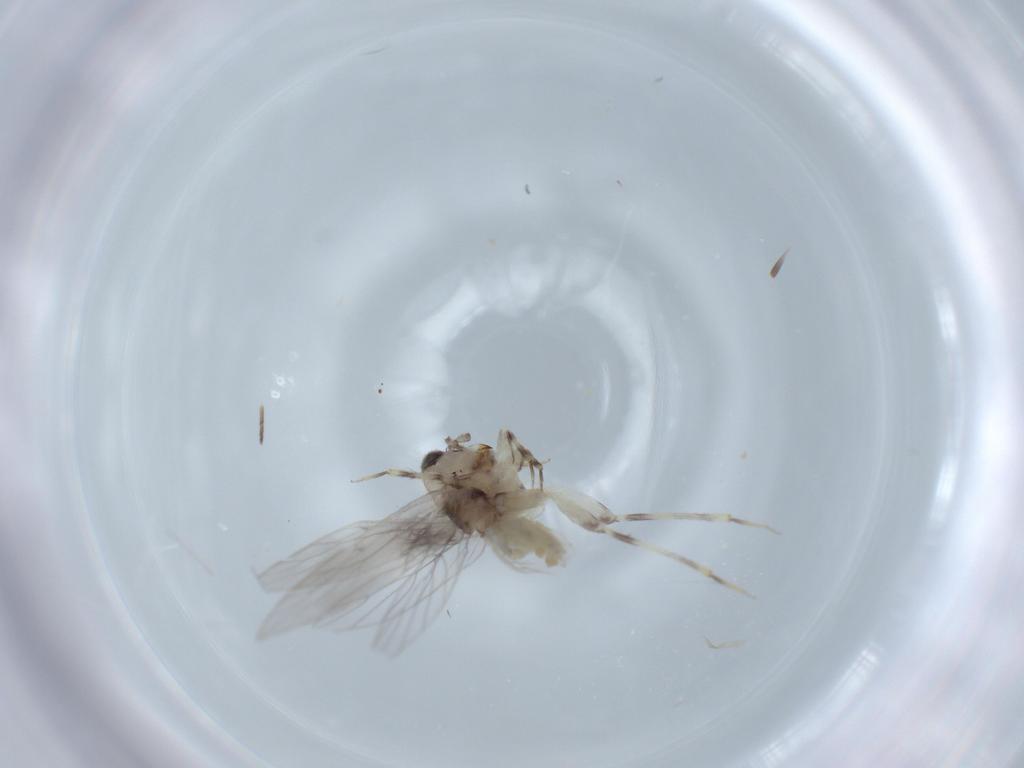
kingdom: Animalia
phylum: Arthropoda
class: Insecta
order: Psocodea
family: Lepidopsocidae
